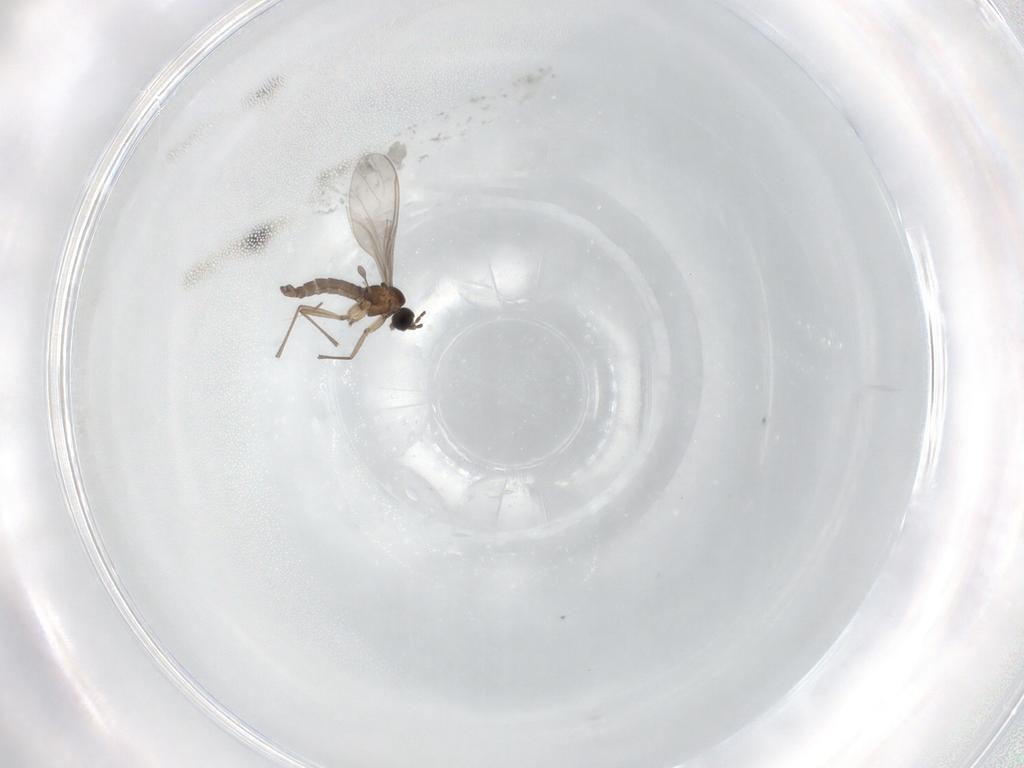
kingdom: Animalia
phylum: Arthropoda
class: Insecta
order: Diptera
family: Sciaridae
